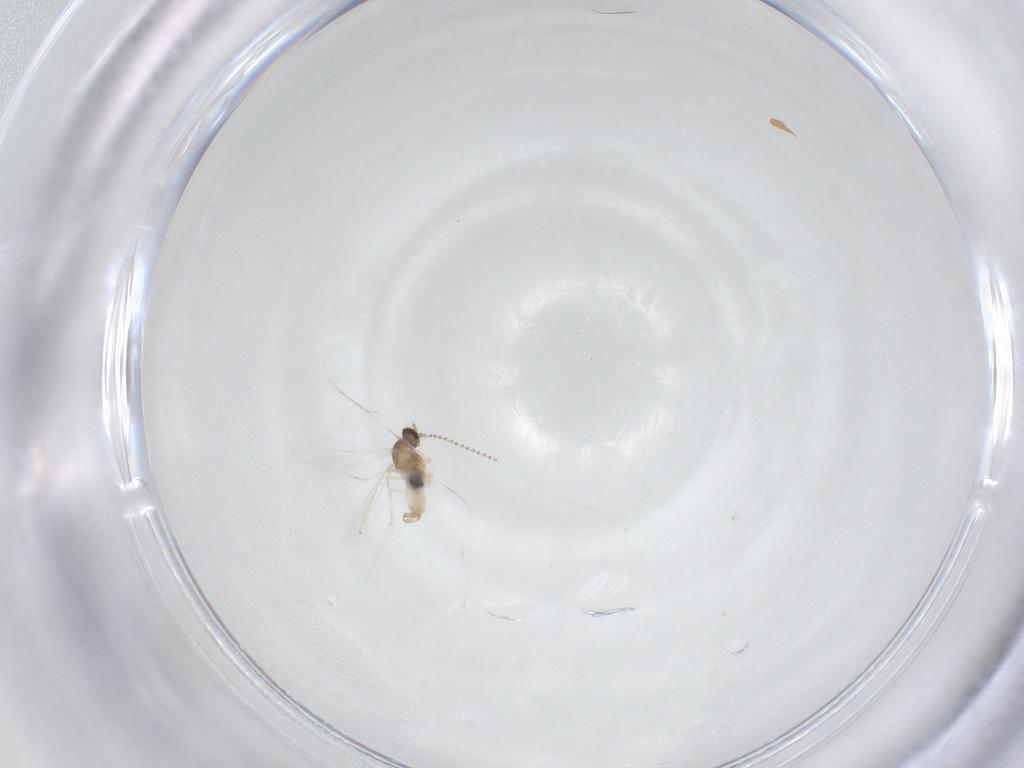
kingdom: Animalia
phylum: Arthropoda
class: Insecta
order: Diptera
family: Cecidomyiidae
